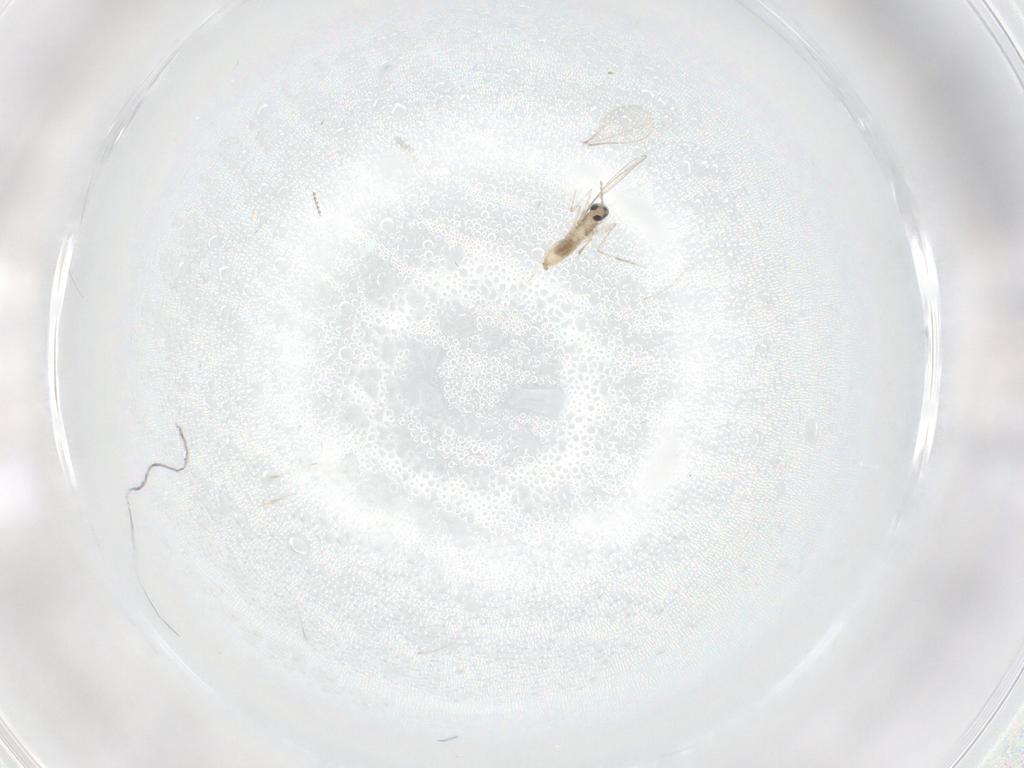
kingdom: Animalia
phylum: Arthropoda
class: Insecta
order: Diptera
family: Cecidomyiidae
